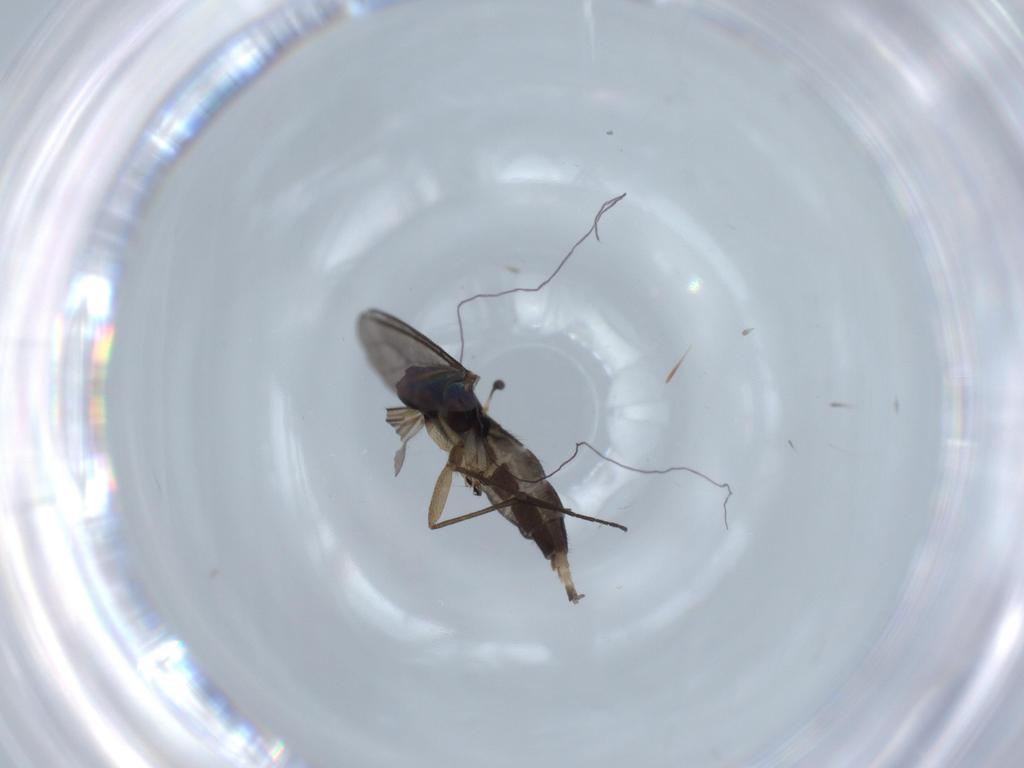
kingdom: Animalia
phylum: Arthropoda
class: Insecta
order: Diptera
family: Sciaridae
